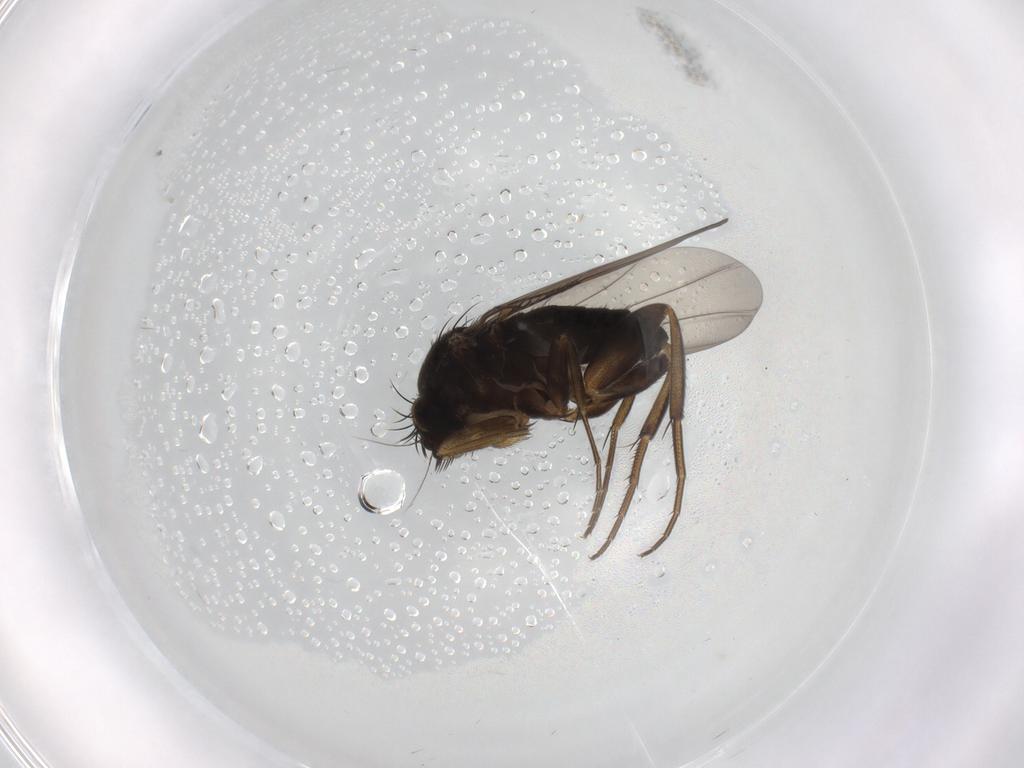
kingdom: Animalia
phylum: Arthropoda
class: Insecta
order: Diptera
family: Phoridae
